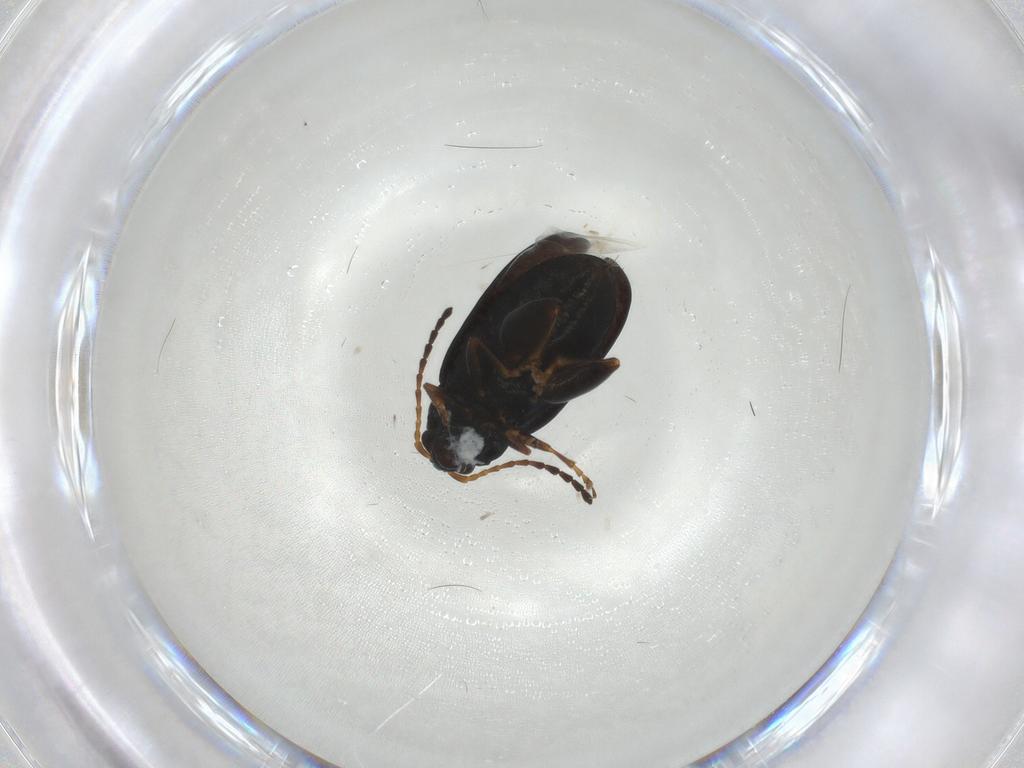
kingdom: Animalia
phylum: Arthropoda
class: Insecta
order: Coleoptera
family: Chrysomelidae
